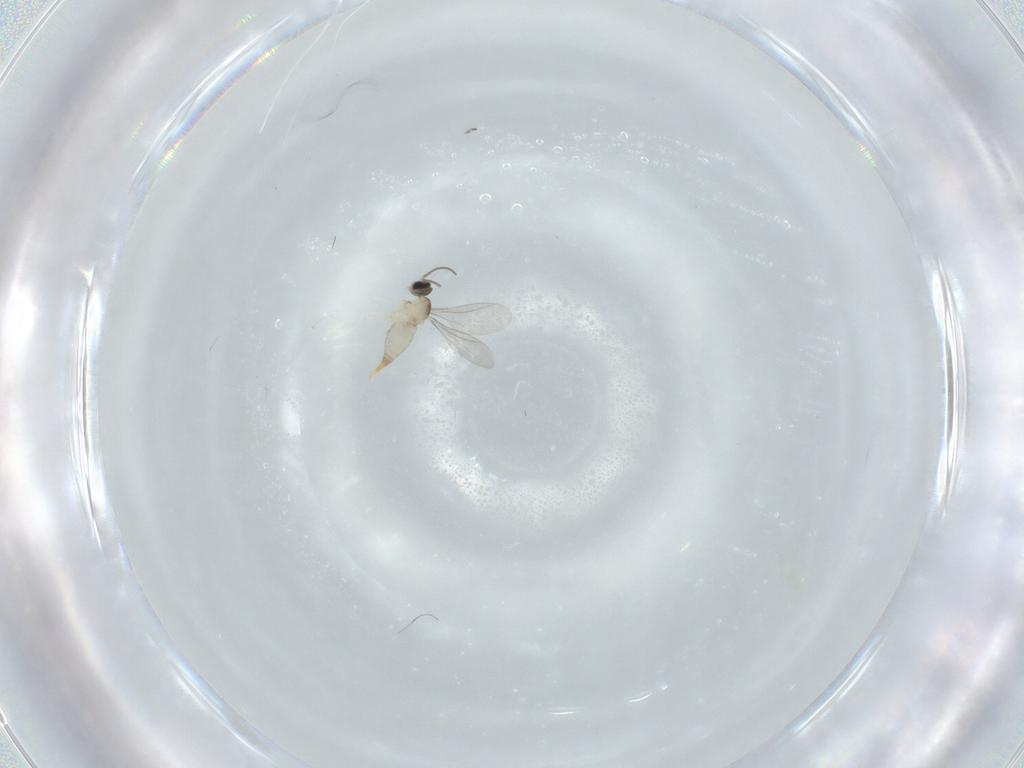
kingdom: Animalia
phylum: Arthropoda
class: Insecta
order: Diptera
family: Cecidomyiidae
